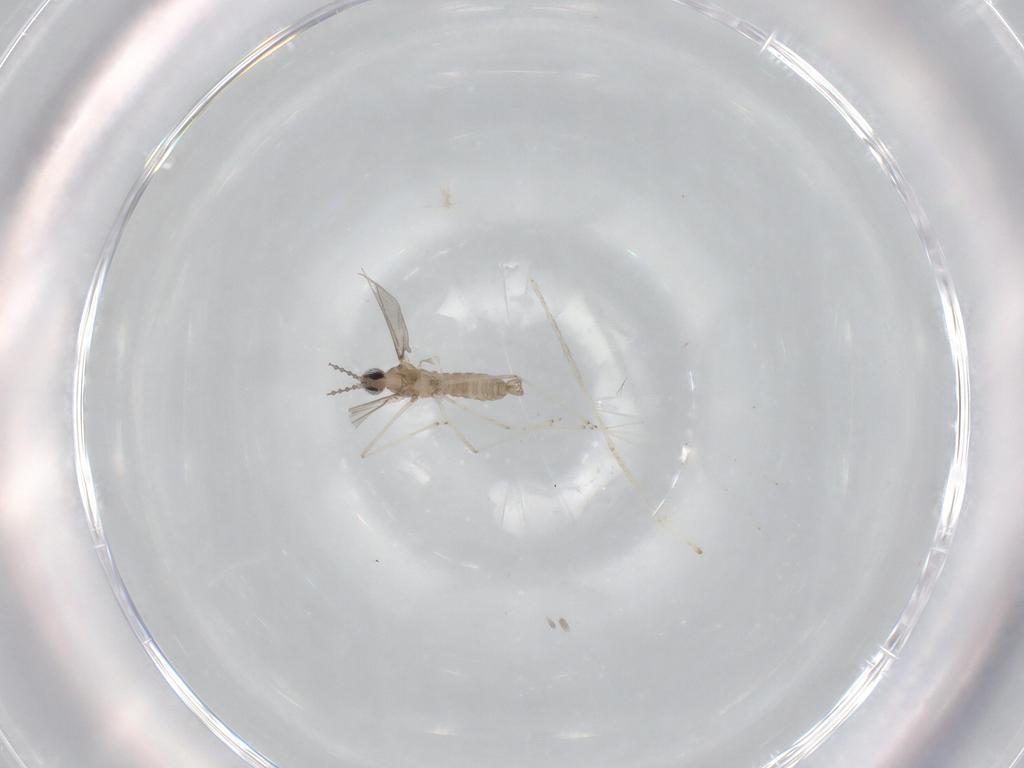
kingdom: Animalia
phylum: Arthropoda
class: Insecta
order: Diptera
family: Cecidomyiidae
